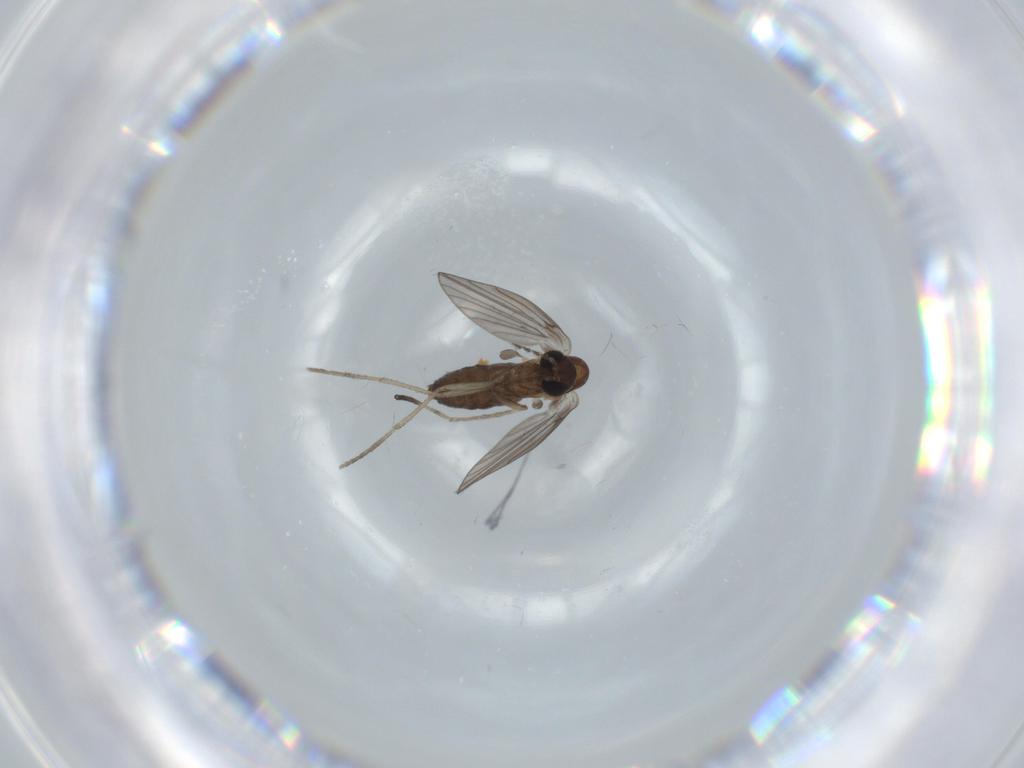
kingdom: Animalia
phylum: Arthropoda
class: Insecta
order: Diptera
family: Psychodidae
